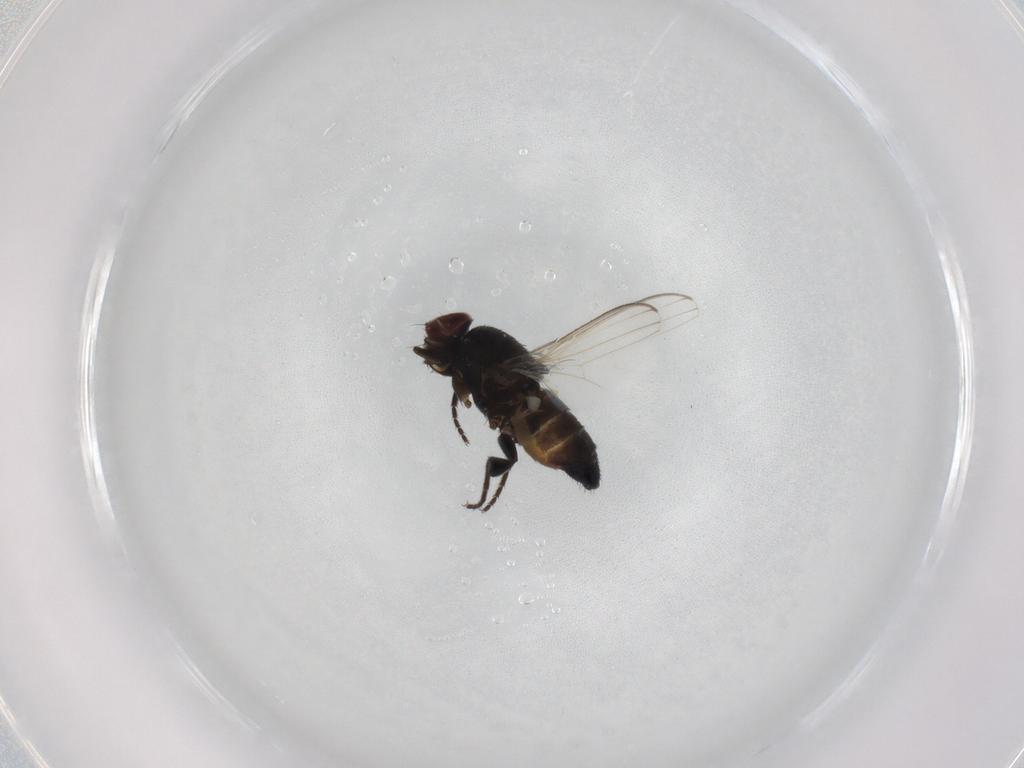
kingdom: Animalia
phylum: Arthropoda
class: Insecta
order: Diptera
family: Milichiidae
